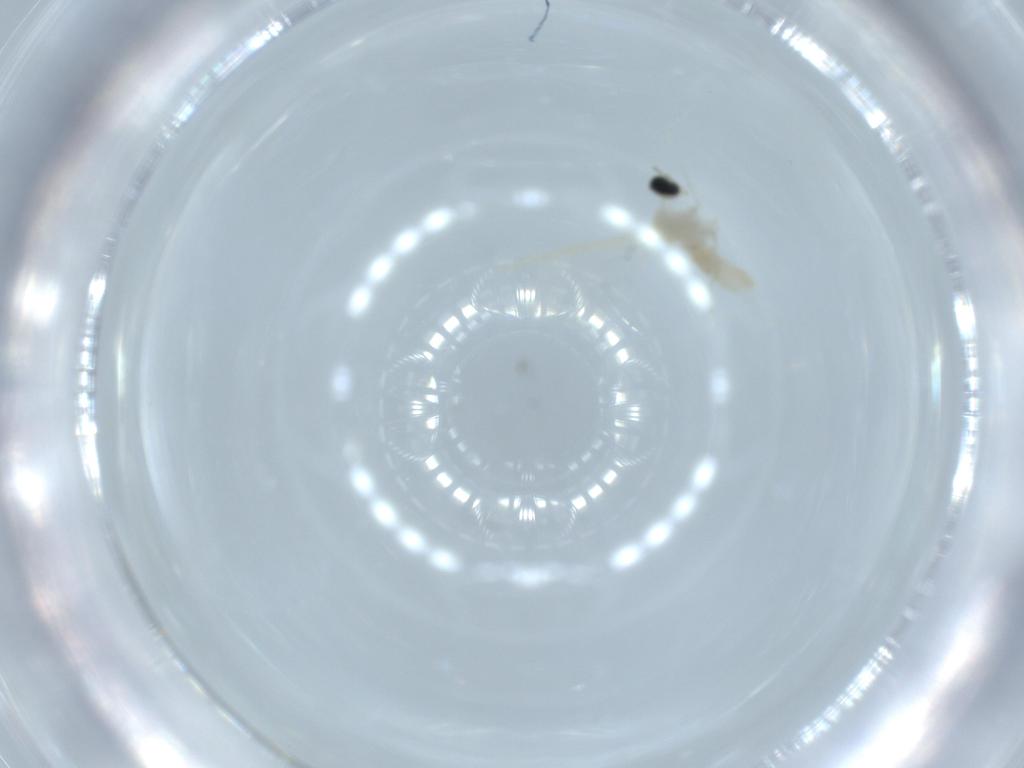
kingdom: Animalia
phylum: Arthropoda
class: Insecta
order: Diptera
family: Cecidomyiidae
